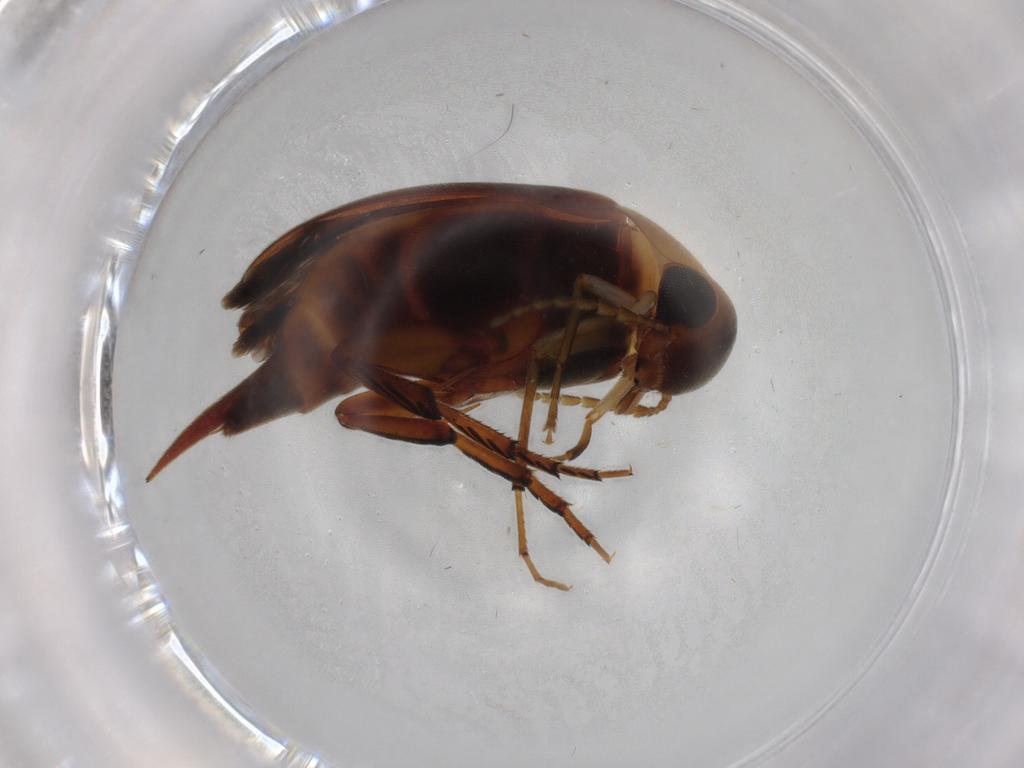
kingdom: Animalia
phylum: Arthropoda
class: Insecta
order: Coleoptera
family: Mordellidae
